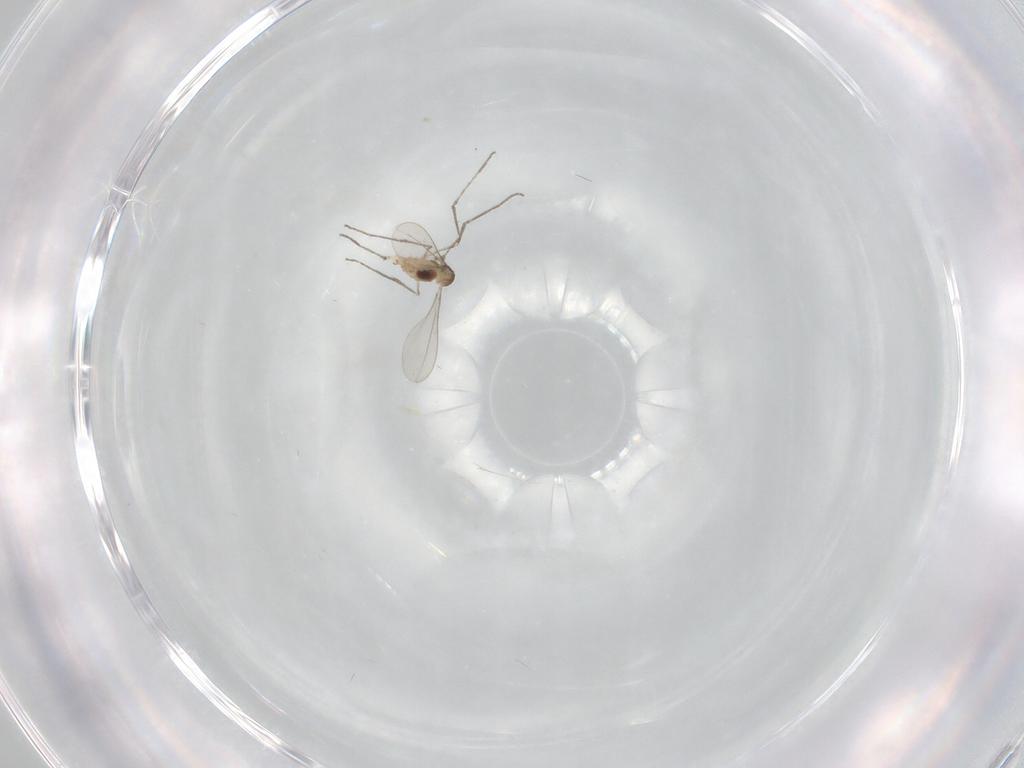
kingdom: Animalia
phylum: Arthropoda
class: Insecta
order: Diptera
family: Cecidomyiidae
